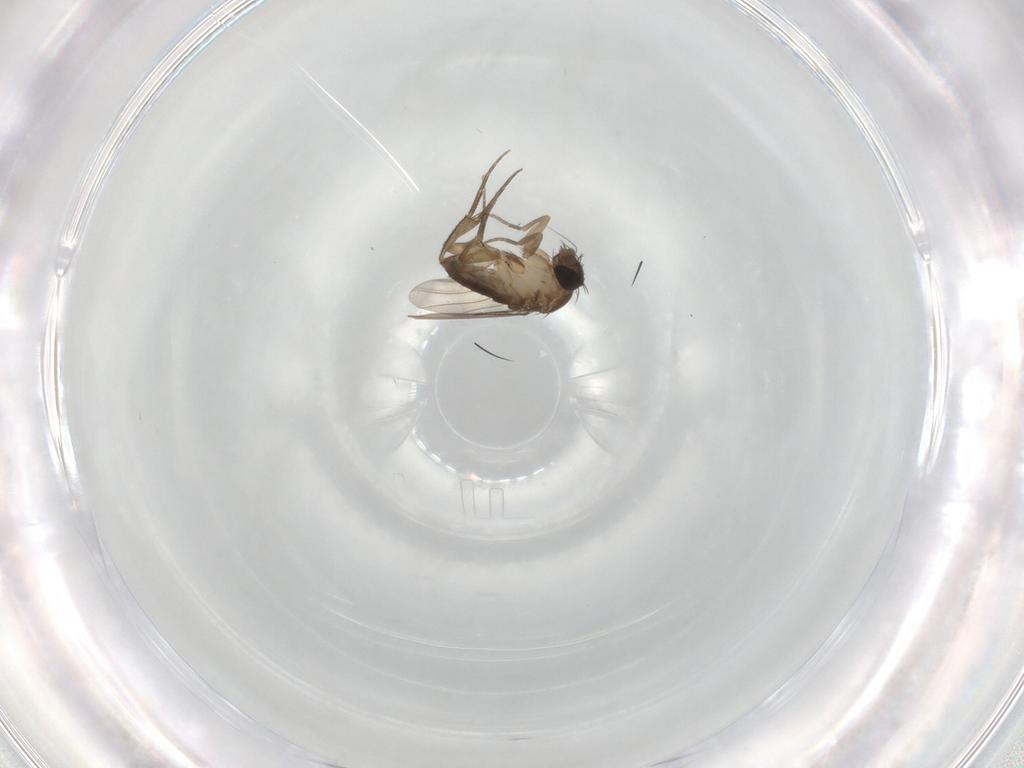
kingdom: Animalia
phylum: Arthropoda
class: Insecta
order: Diptera
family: Phoridae
